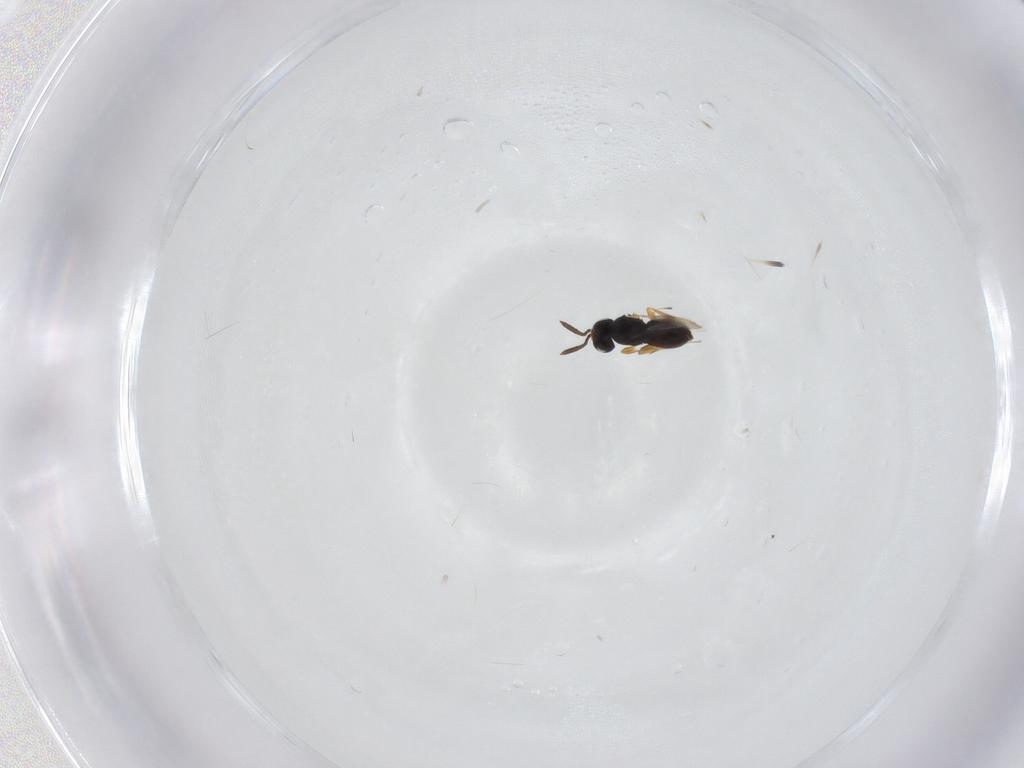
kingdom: Animalia
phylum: Arthropoda
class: Insecta
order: Hymenoptera
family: Scelionidae
